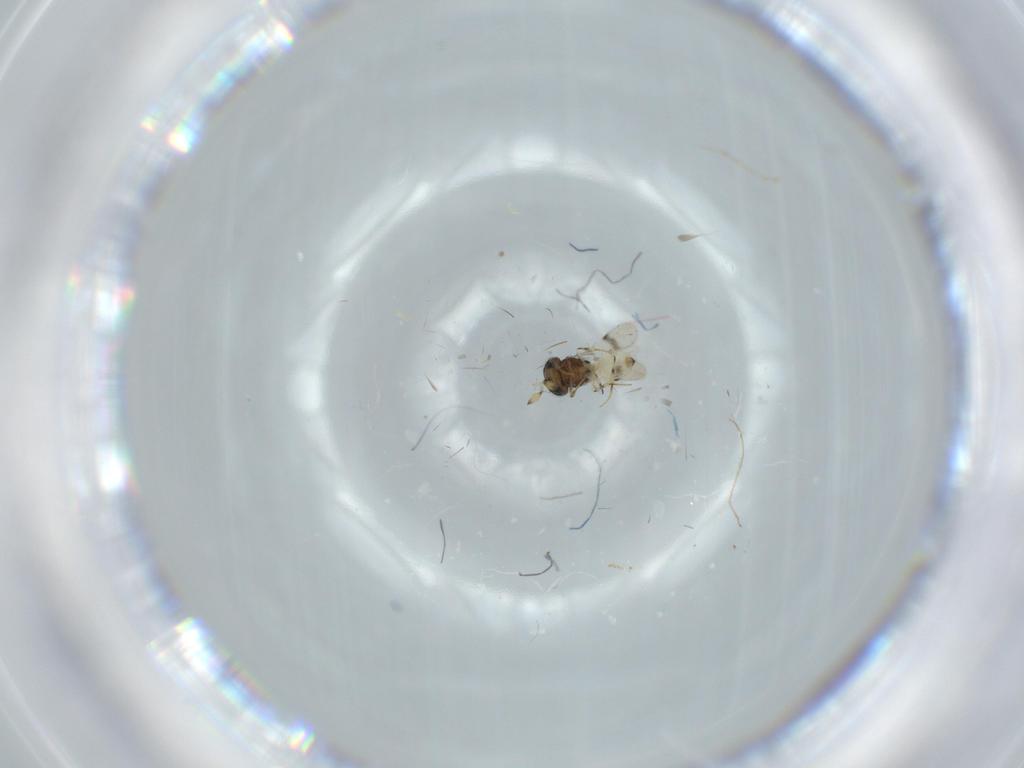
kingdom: Animalia
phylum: Arthropoda
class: Insecta
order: Hymenoptera
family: Scelionidae
